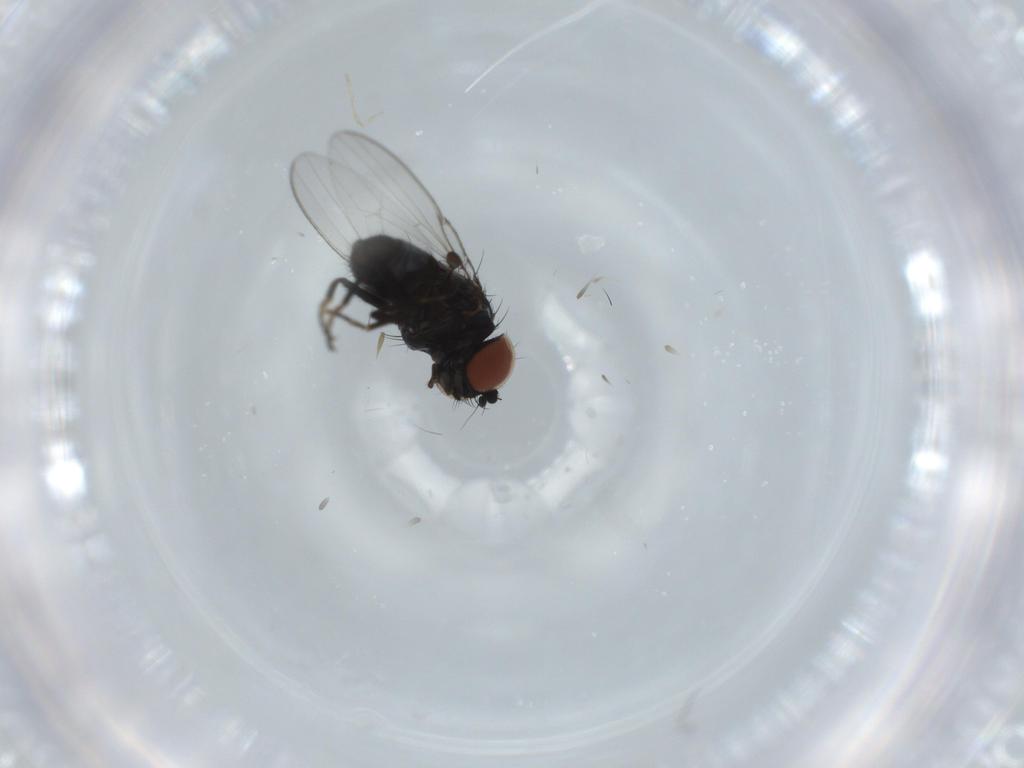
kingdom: Animalia
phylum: Arthropoda
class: Insecta
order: Diptera
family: Milichiidae
